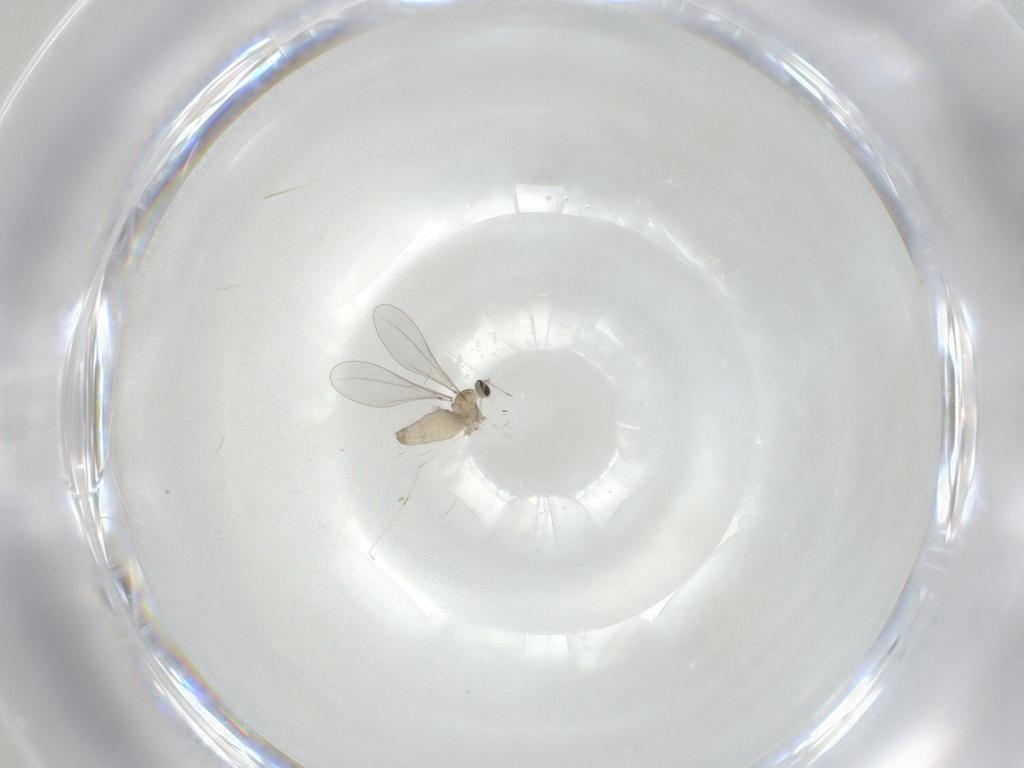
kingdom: Animalia
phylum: Arthropoda
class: Insecta
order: Diptera
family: Cecidomyiidae
